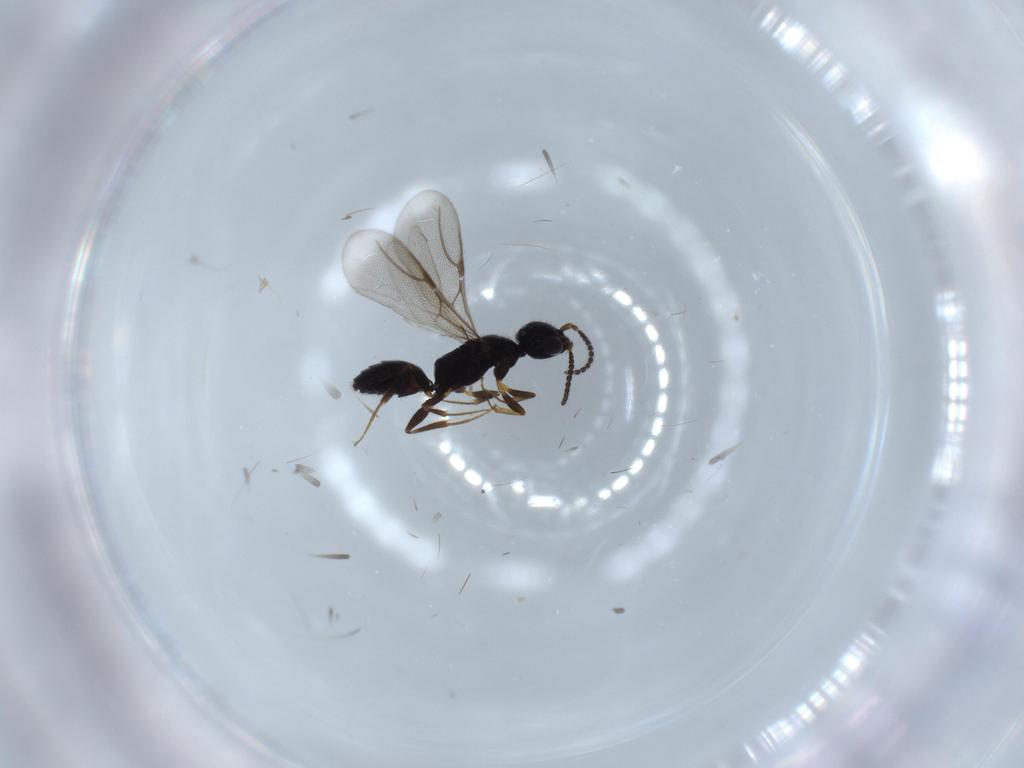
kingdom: Animalia
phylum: Arthropoda
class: Insecta
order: Hymenoptera
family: Bethylidae
